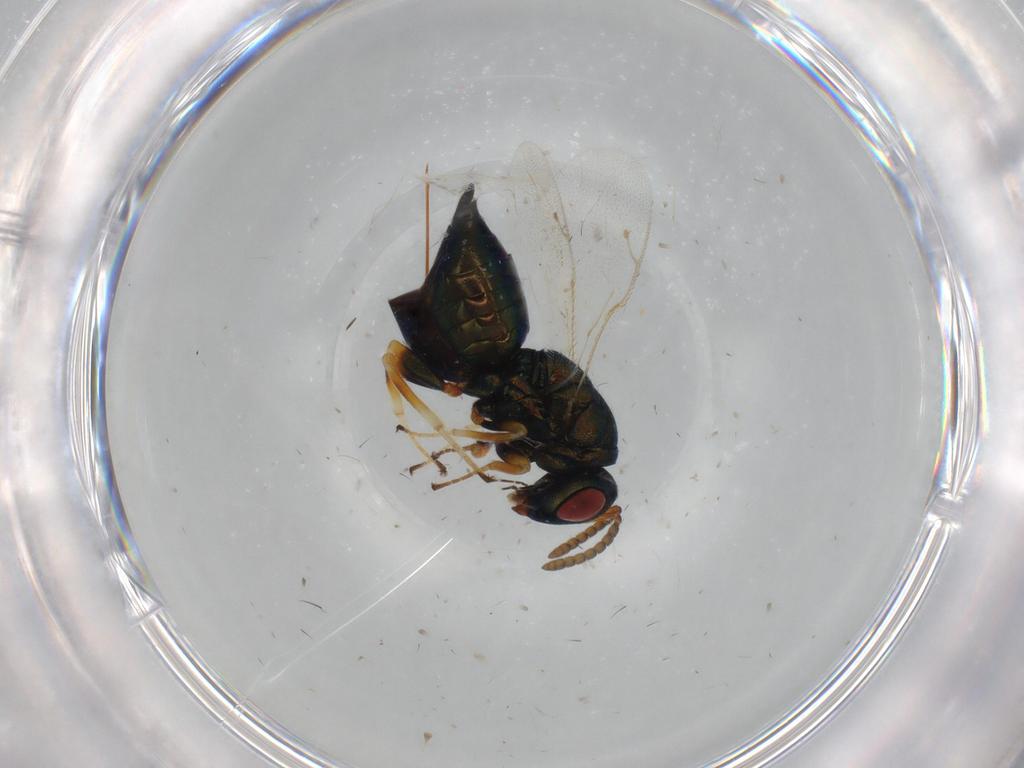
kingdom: Animalia
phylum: Arthropoda
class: Insecta
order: Hymenoptera
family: Pteromalidae
